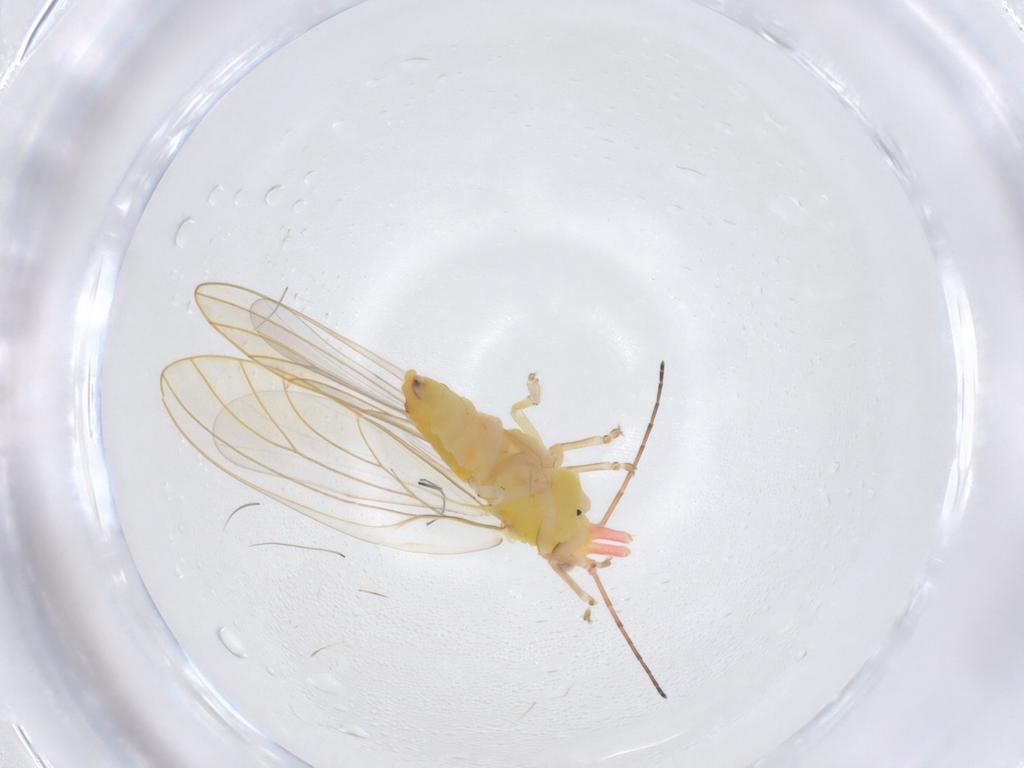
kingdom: Animalia
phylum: Arthropoda
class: Insecta
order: Hemiptera
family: Aphalaridae
